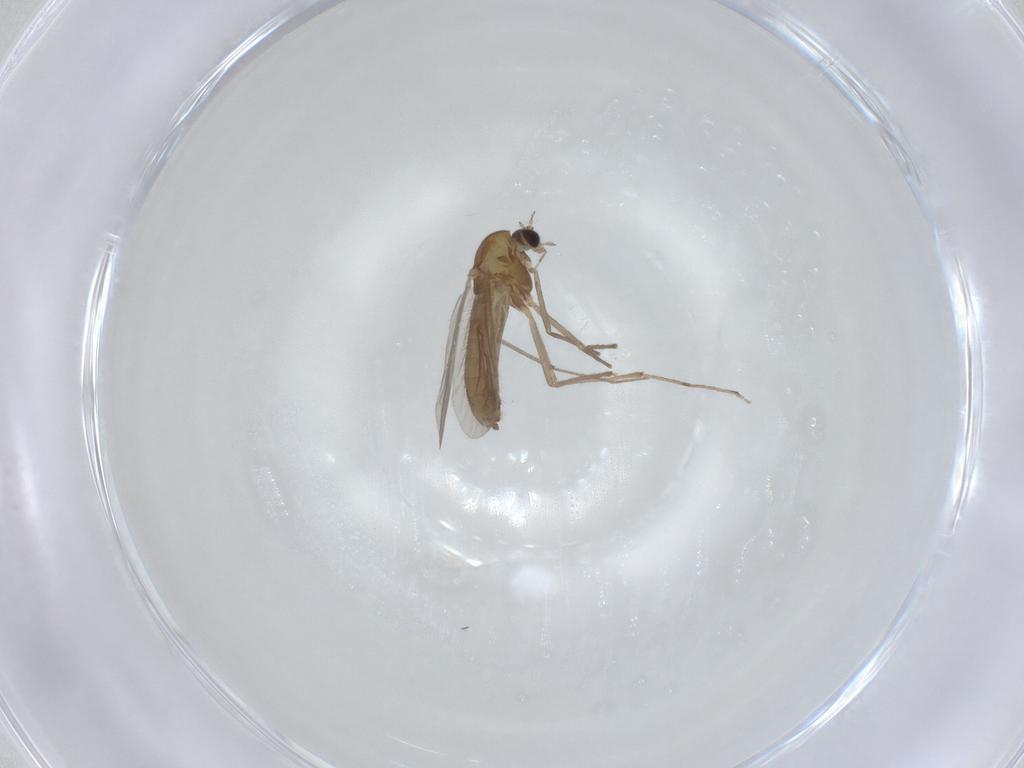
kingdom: Animalia
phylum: Arthropoda
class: Insecta
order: Diptera
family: Chironomidae
